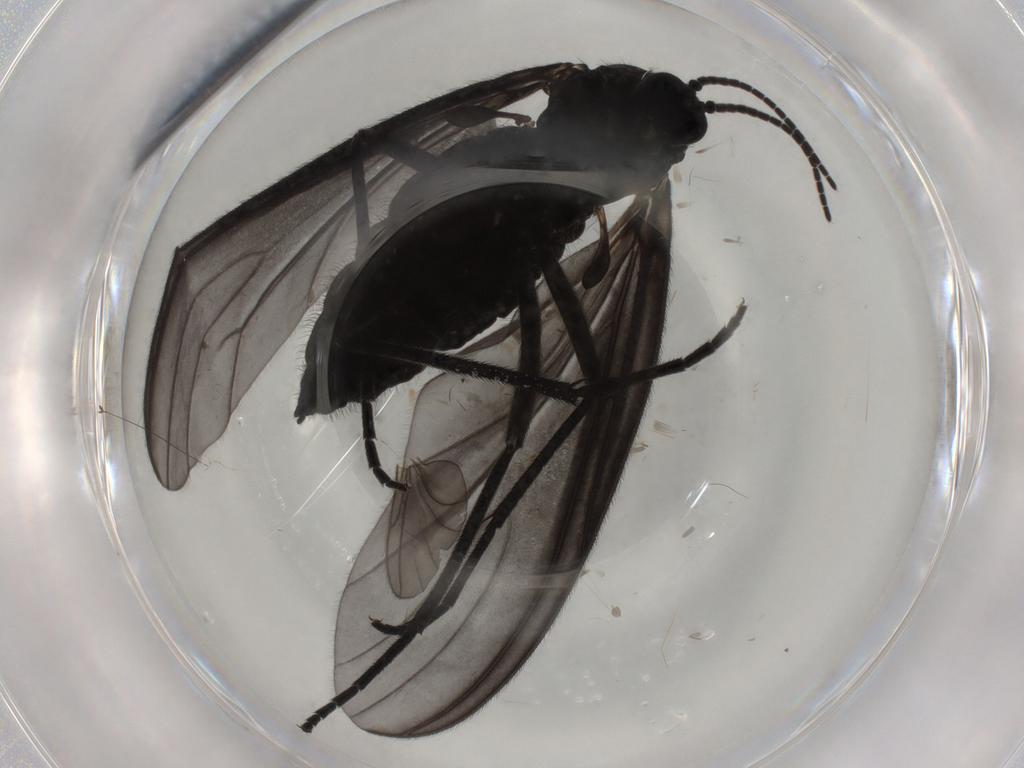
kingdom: Animalia
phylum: Arthropoda
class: Insecta
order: Diptera
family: Sciaridae
